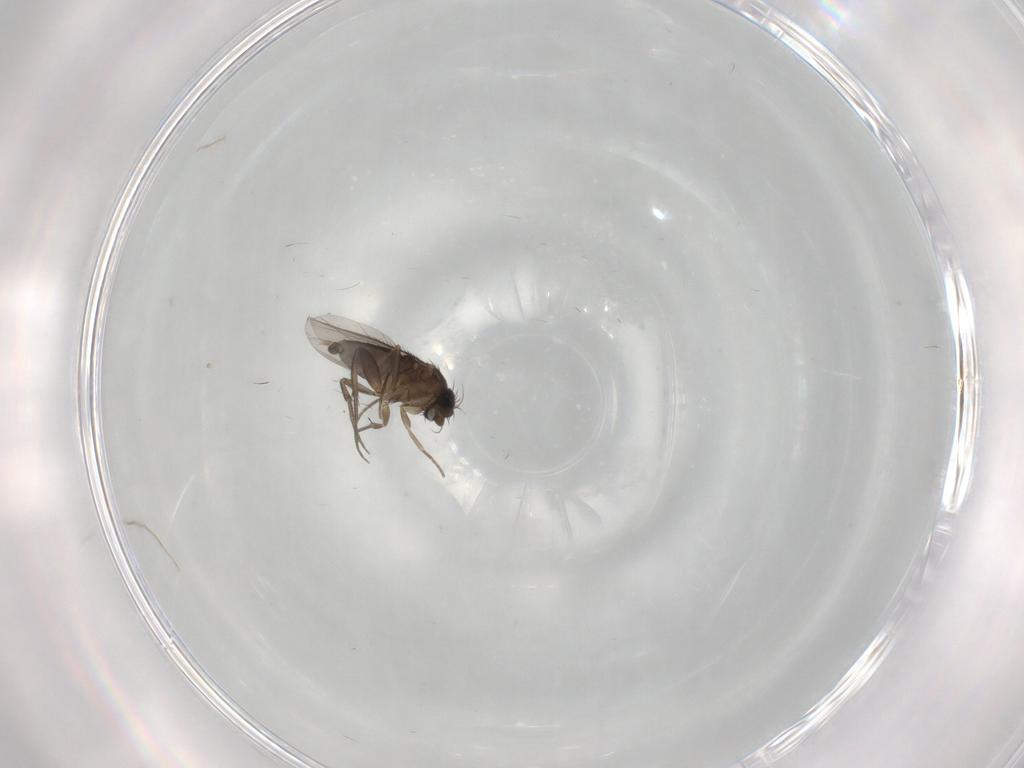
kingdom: Animalia
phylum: Arthropoda
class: Insecta
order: Diptera
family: Phoridae
